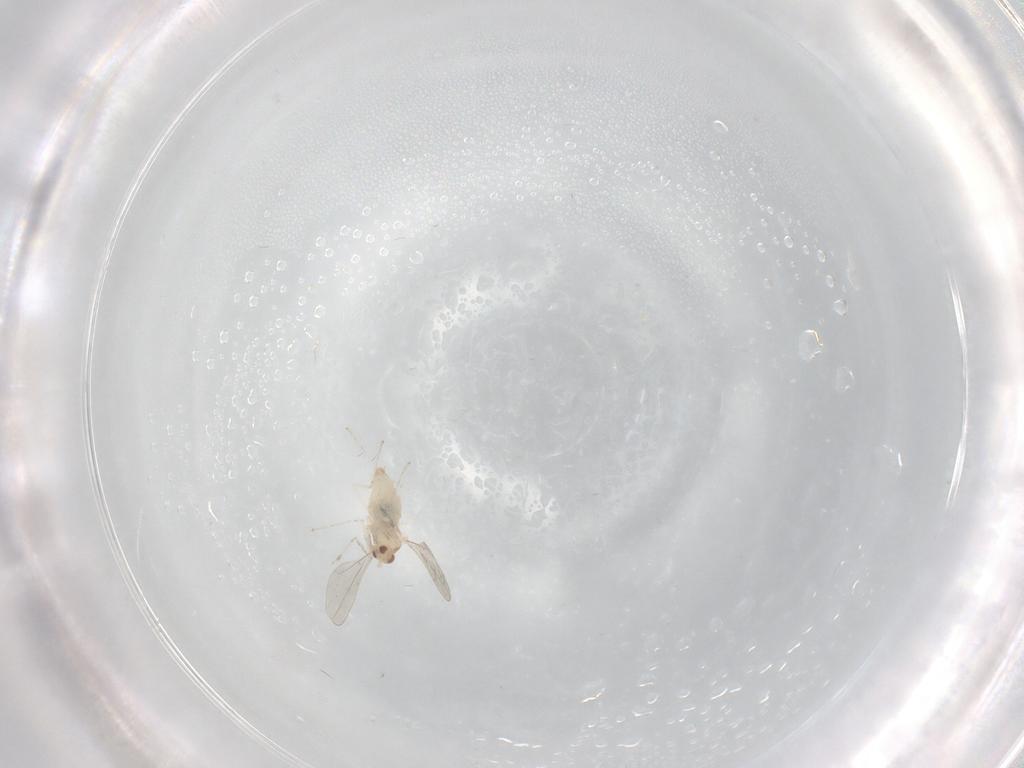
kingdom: Animalia
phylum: Arthropoda
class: Insecta
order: Diptera
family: Cecidomyiidae
